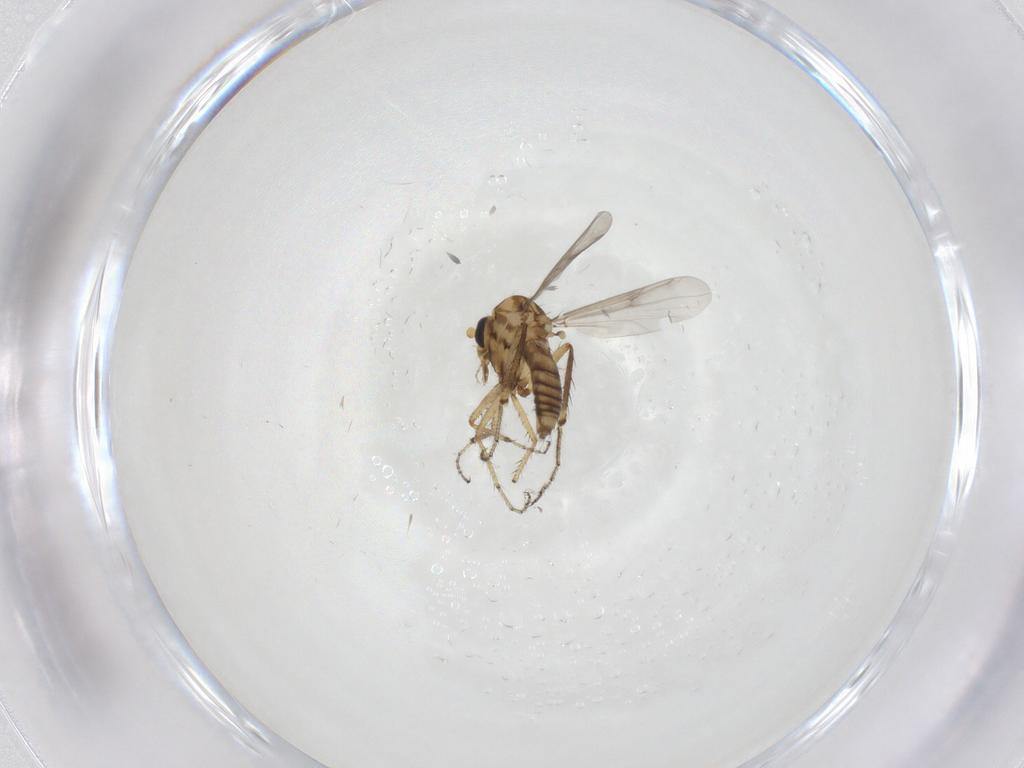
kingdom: Animalia
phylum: Arthropoda
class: Insecta
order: Diptera
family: Ceratopogonidae
